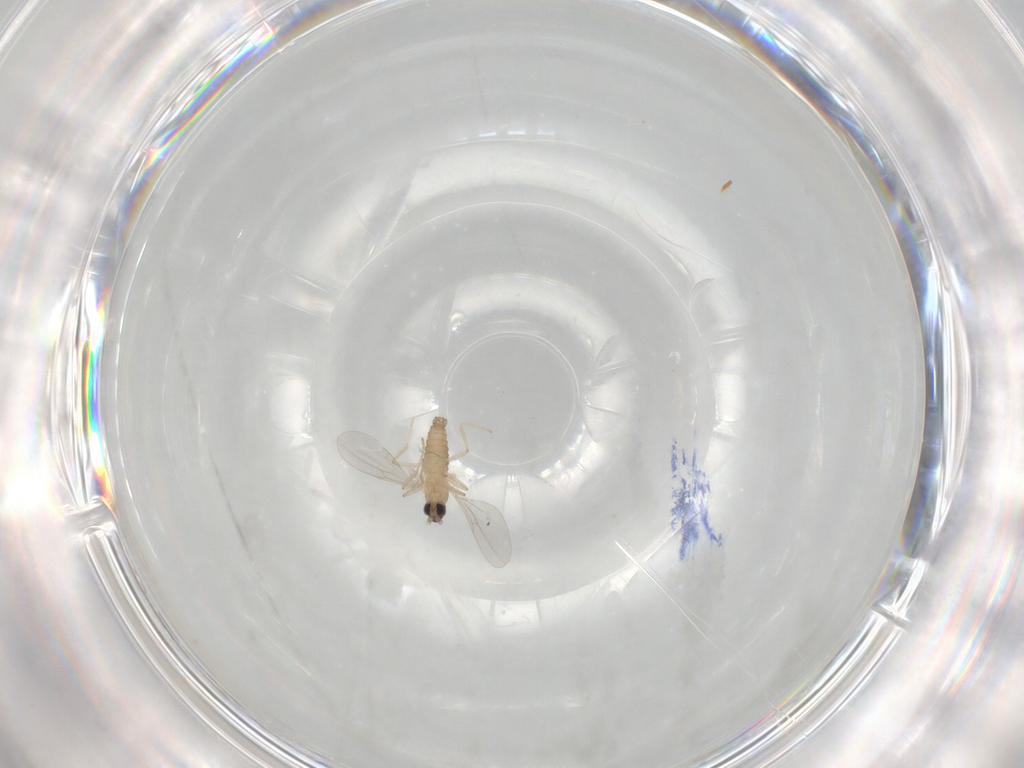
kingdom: Animalia
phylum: Arthropoda
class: Insecta
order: Diptera
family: Cecidomyiidae
